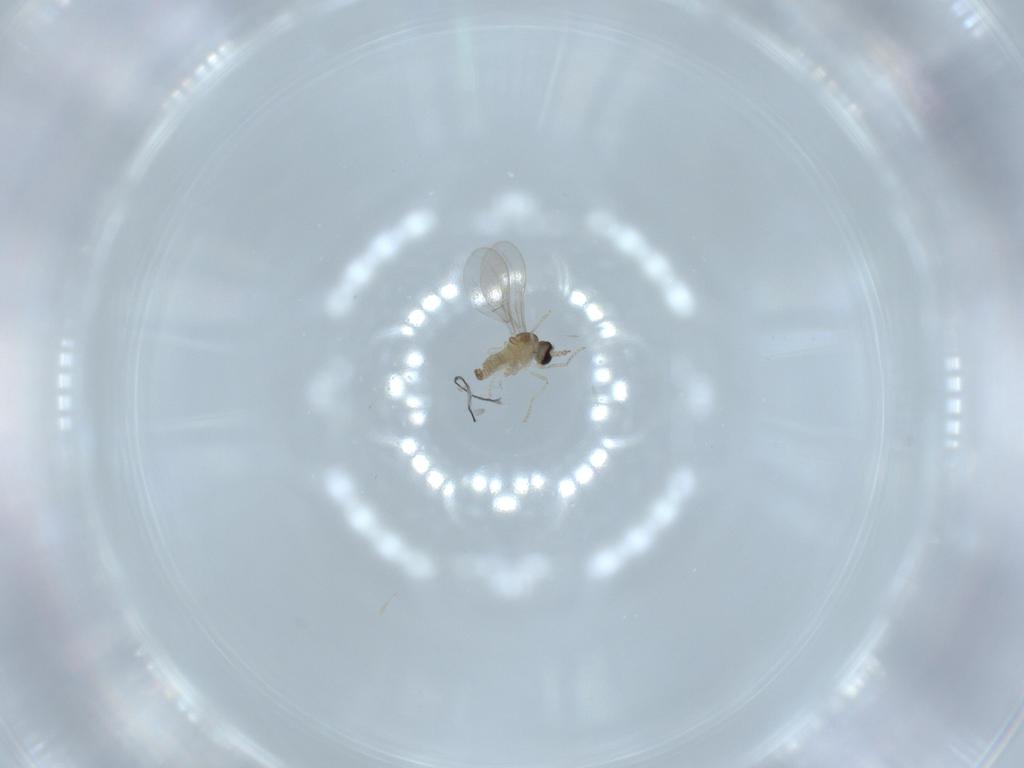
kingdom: Animalia
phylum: Arthropoda
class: Insecta
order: Diptera
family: Cecidomyiidae
